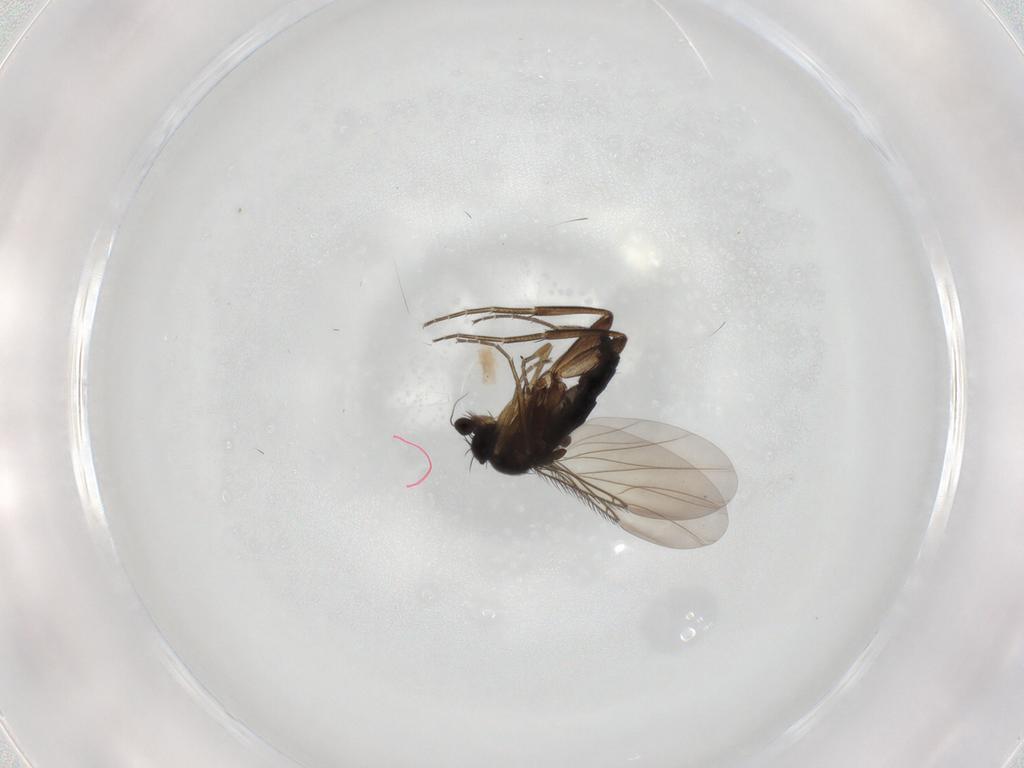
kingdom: Animalia
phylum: Arthropoda
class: Insecta
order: Diptera
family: Phoridae
